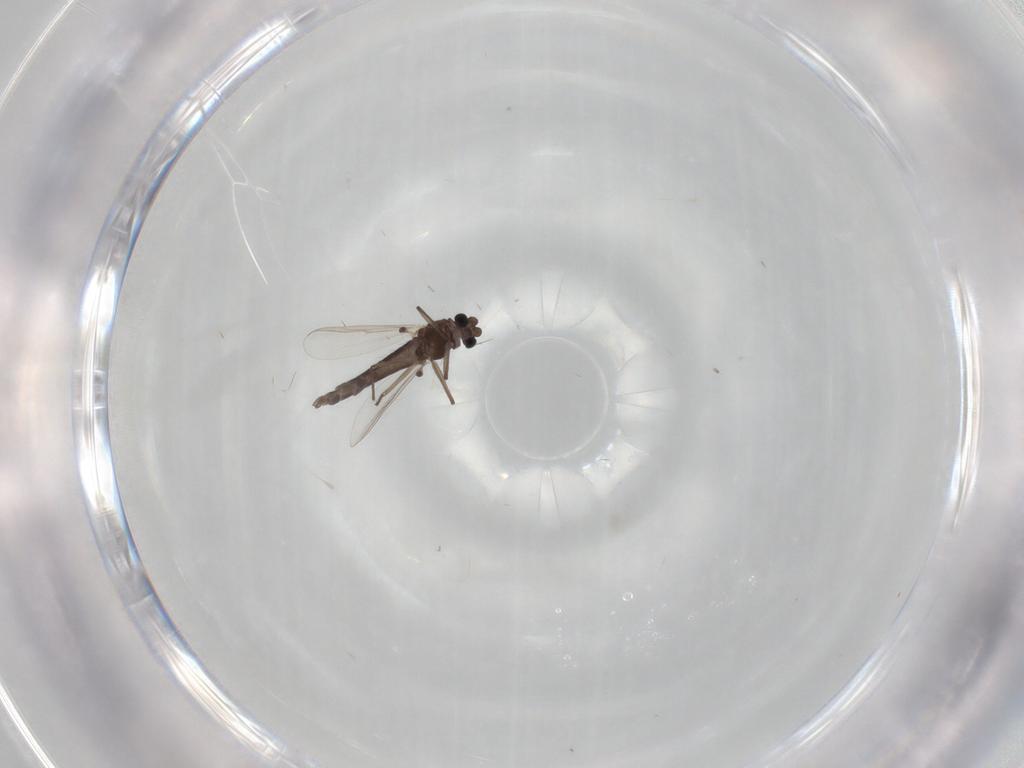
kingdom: Animalia
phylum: Arthropoda
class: Insecta
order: Diptera
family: Chironomidae
